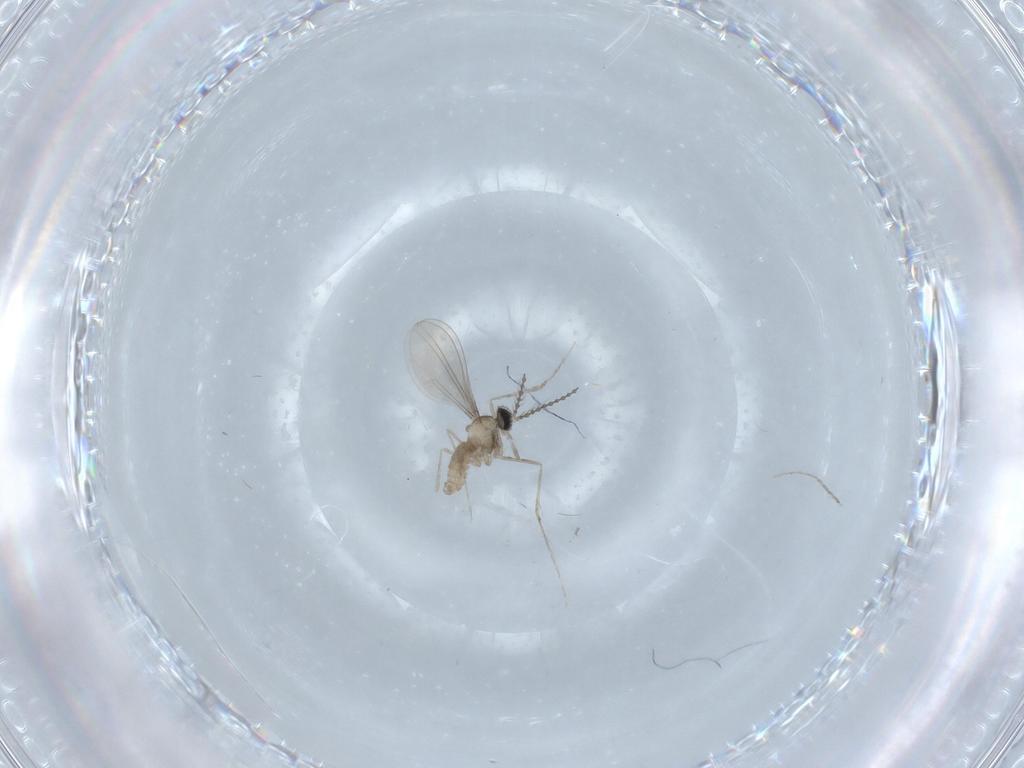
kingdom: Animalia
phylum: Arthropoda
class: Insecta
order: Diptera
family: Cecidomyiidae
